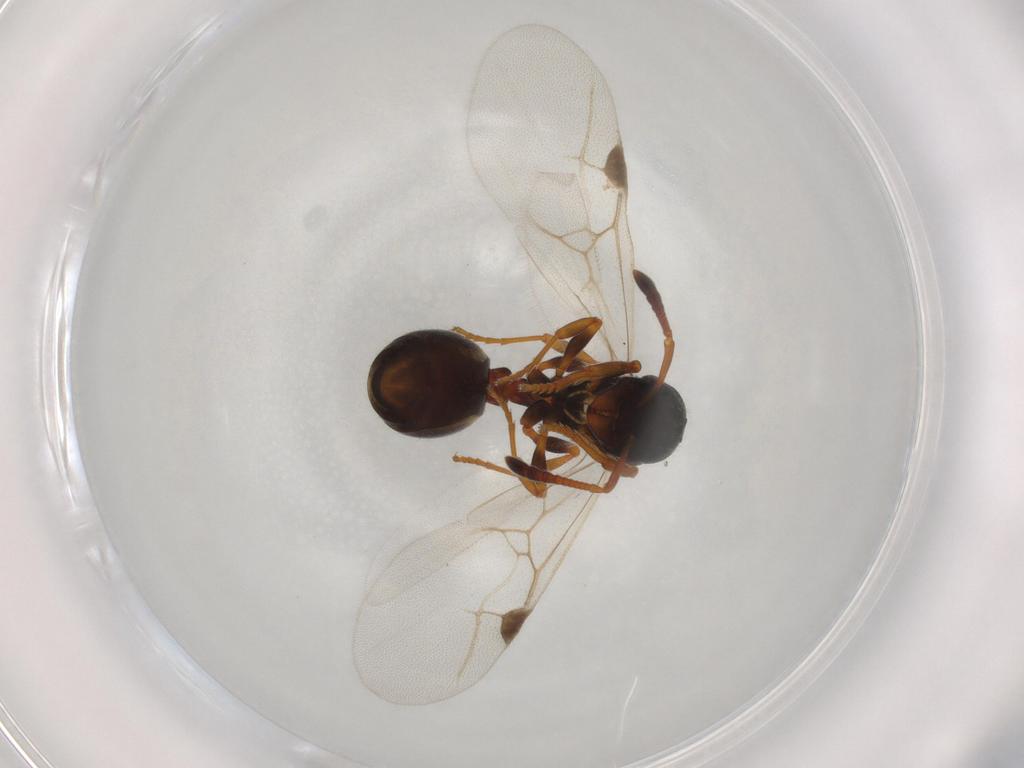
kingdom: Animalia
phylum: Arthropoda
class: Insecta
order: Hymenoptera
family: Formicidae
